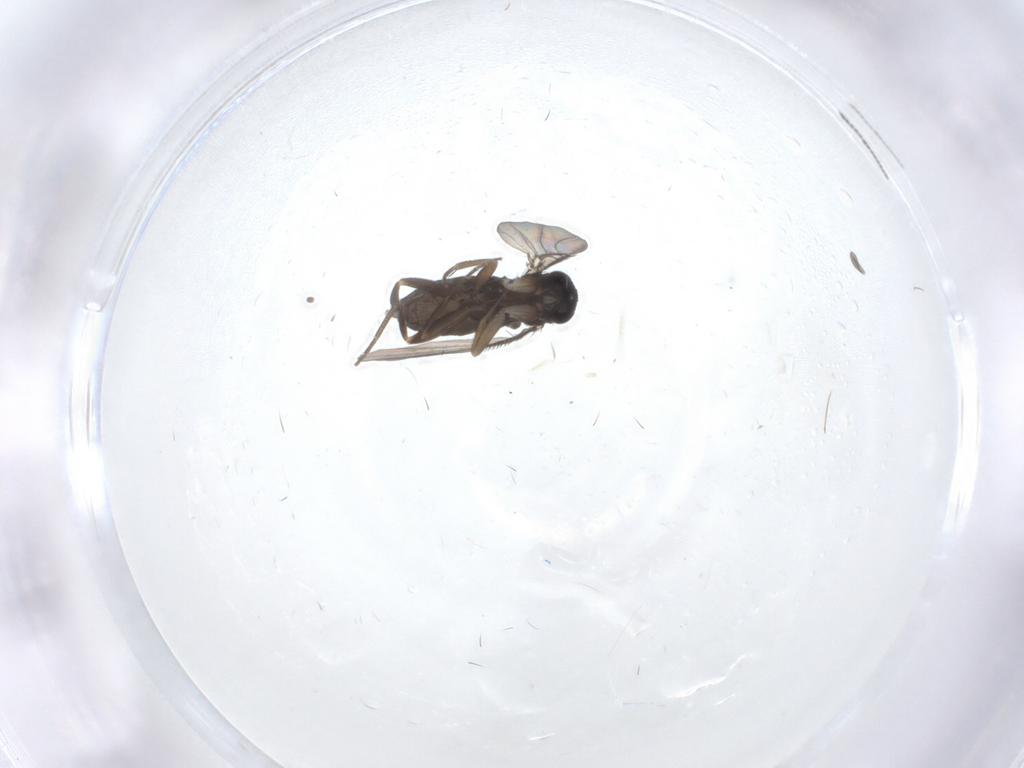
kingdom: Animalia
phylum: Arthropoda
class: Insecta
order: Diptera
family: Phoridae
